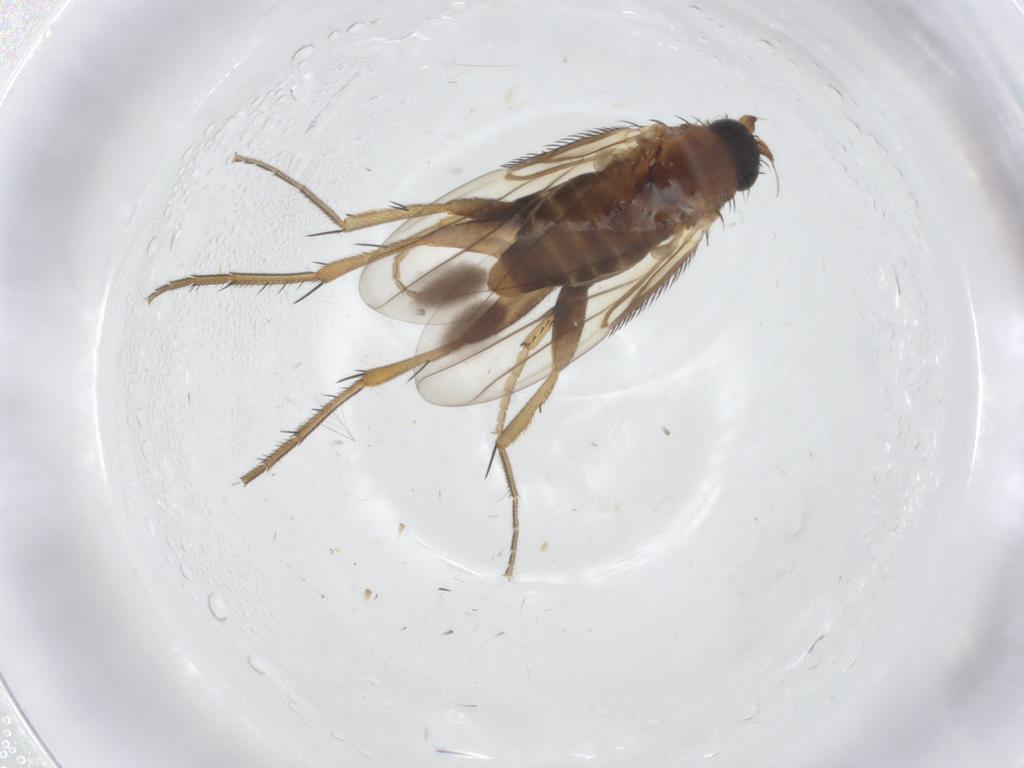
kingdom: Animalia
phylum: Arthropoda
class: Insecta
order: Diptera
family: Phoridae
